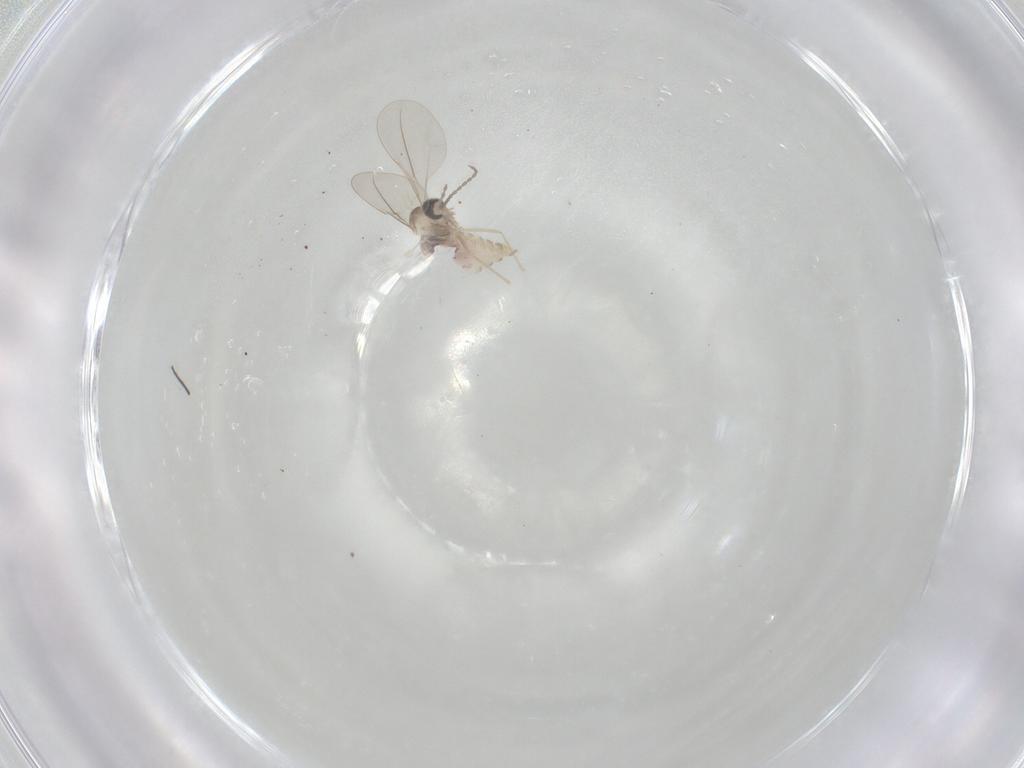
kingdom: Animalia
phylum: Arthropoda
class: Insecta
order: Diptera
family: Cecidomyiidae
